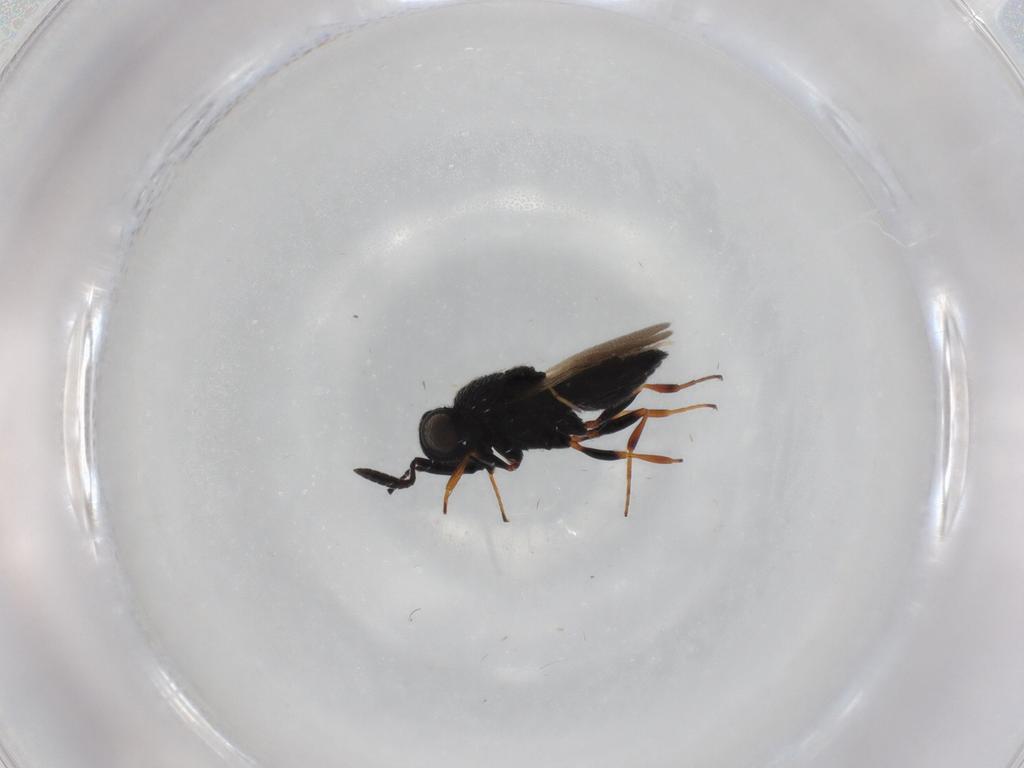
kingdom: Animalia
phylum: Arthropoda
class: Insecta
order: Hymenoptera
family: Scelionidae
